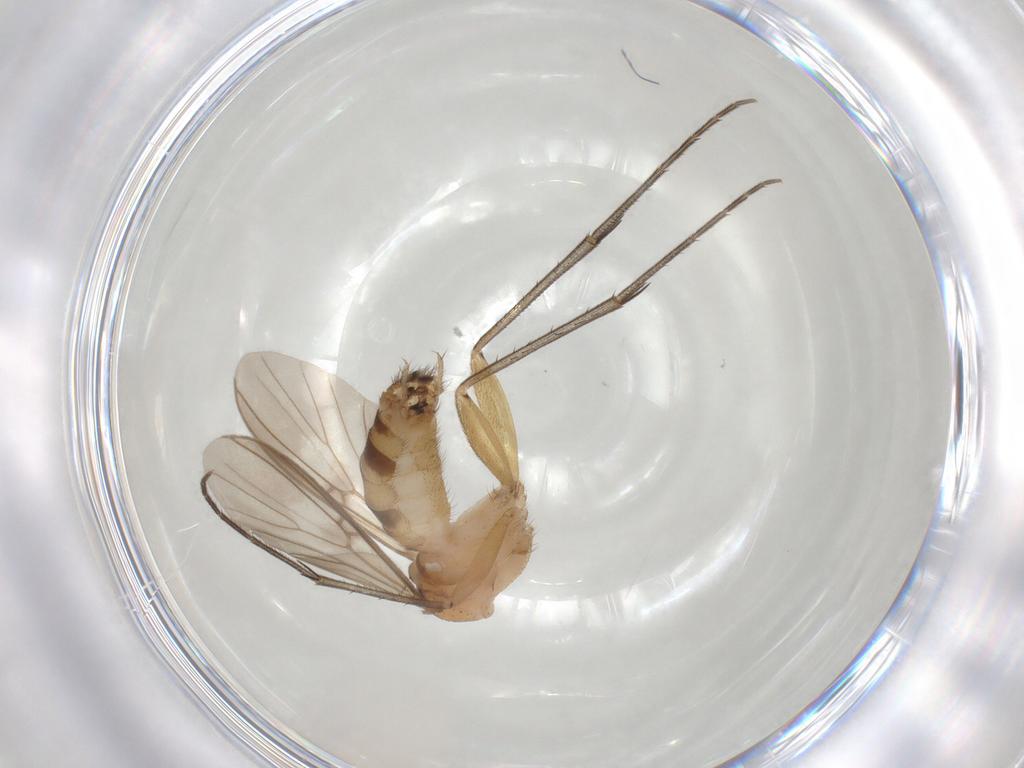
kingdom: Animalia
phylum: Arthropoda
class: Insecta
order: Diptera
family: Mycetophilidae
